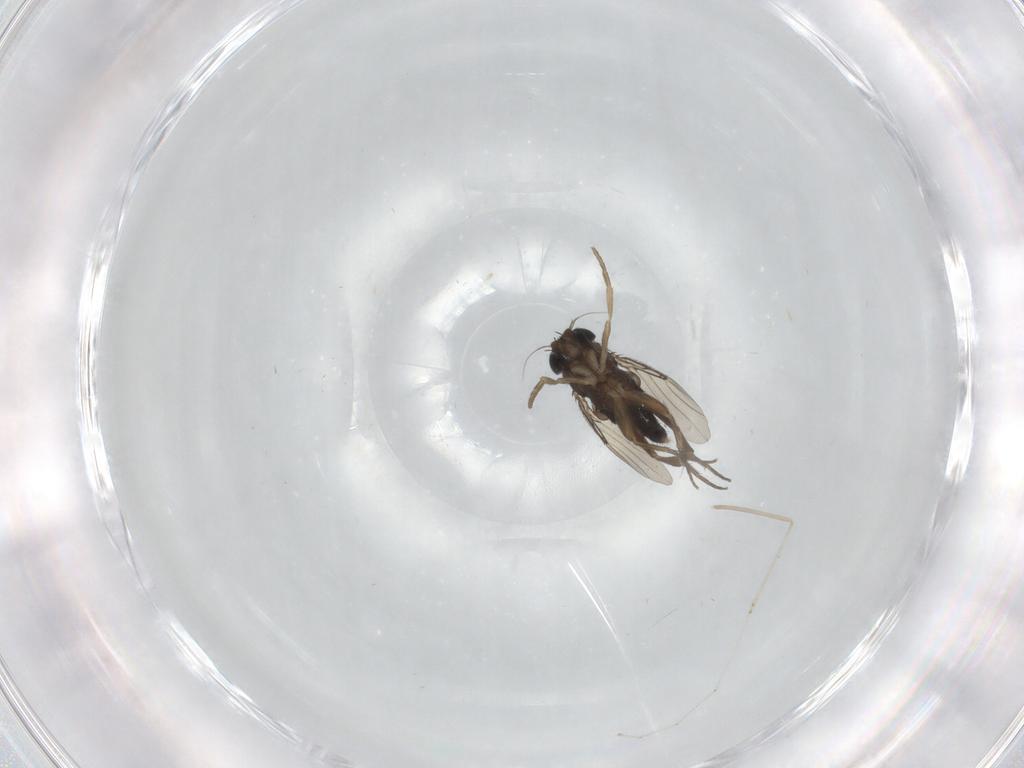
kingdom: Animalia
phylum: Arthropoda
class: Insecta
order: Diptera
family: Phoridae
